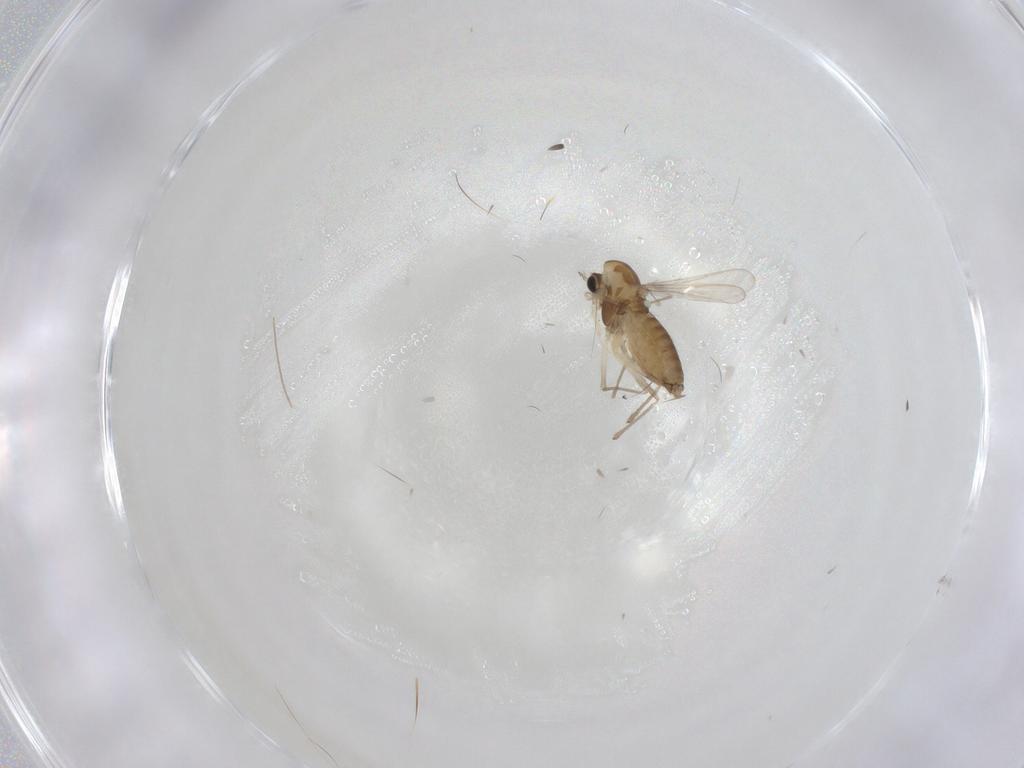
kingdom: Animalia
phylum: Arthropoda
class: Insecta
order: Diptera
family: Chironomidae
